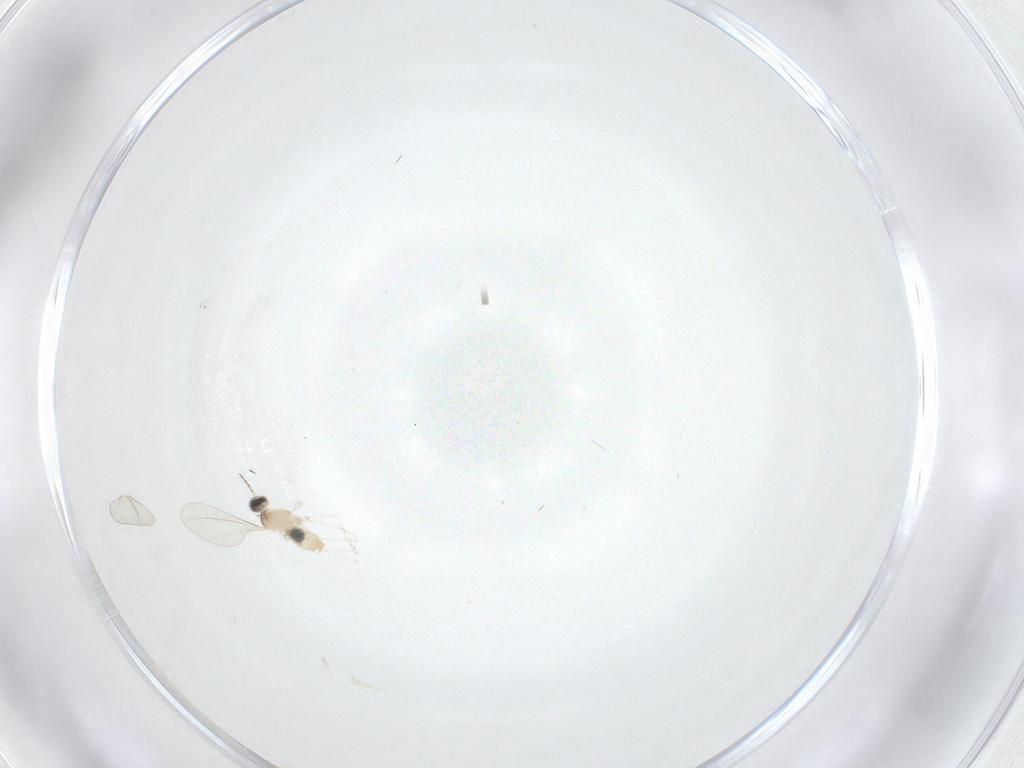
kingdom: Animalia
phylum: Arthropoda
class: Insecta
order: Diptera
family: Cecidomyiidae
